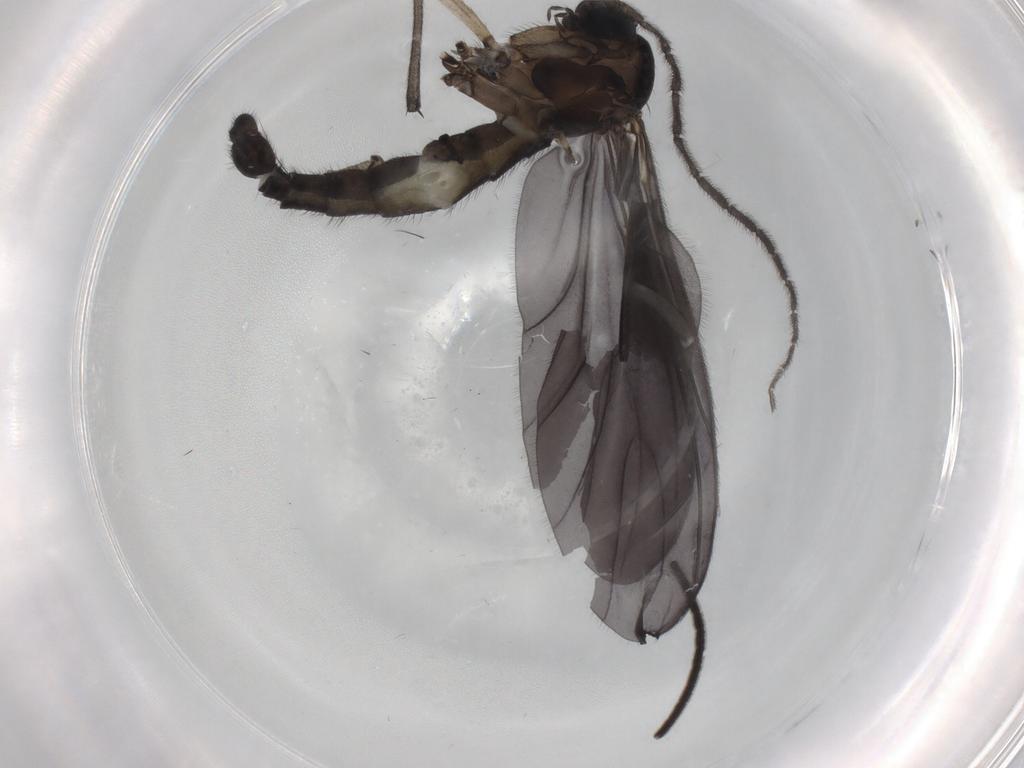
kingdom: Animalia
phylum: Arthropoda
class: Insecta
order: Diptera
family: Sciaridae
